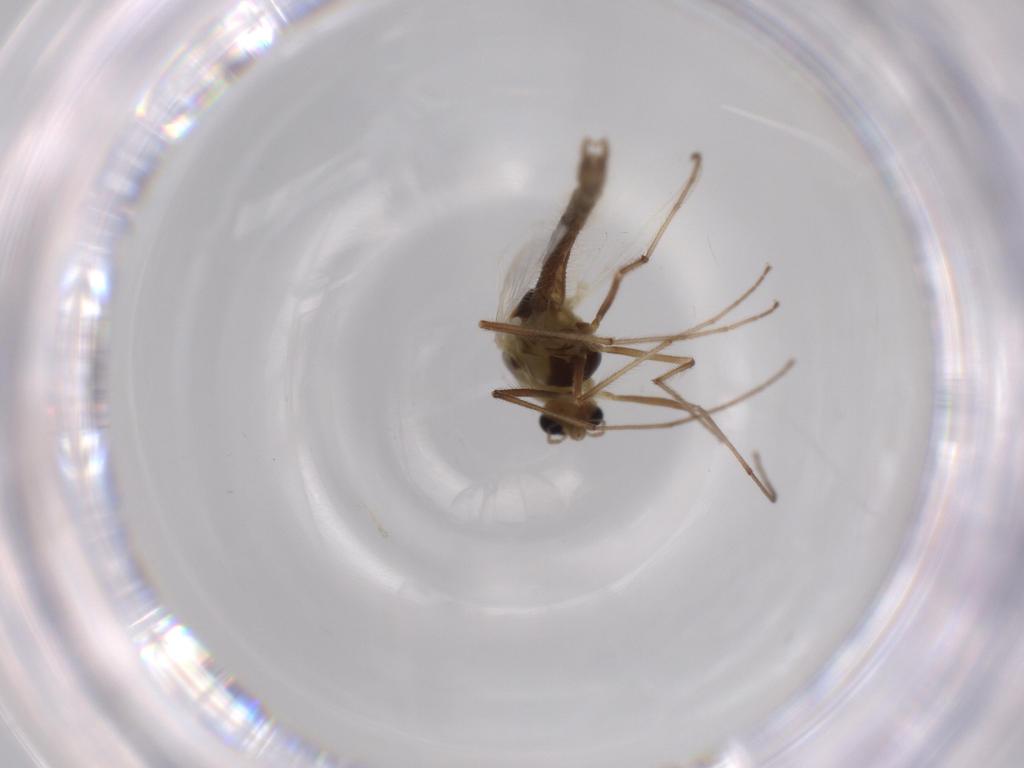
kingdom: Animalia
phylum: Arthropoda
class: Insecta
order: Diptera
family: Chironomidae
